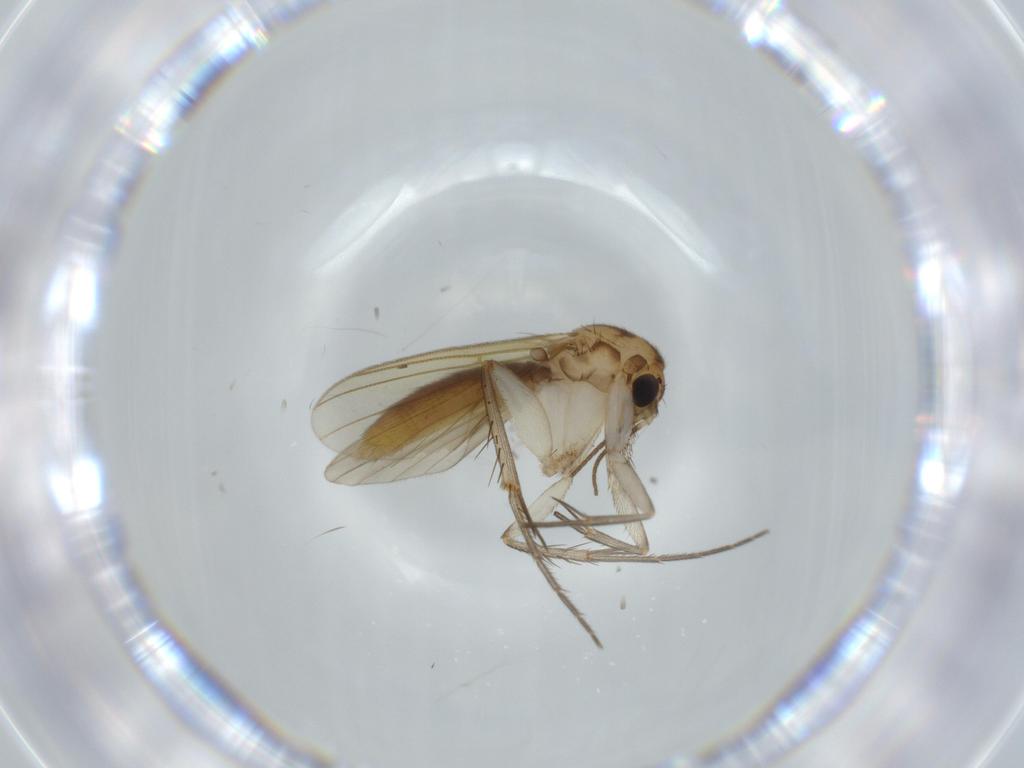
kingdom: Animalia
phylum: Arthropoda
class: Insecta
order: Diptera
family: Mycetophilidae
